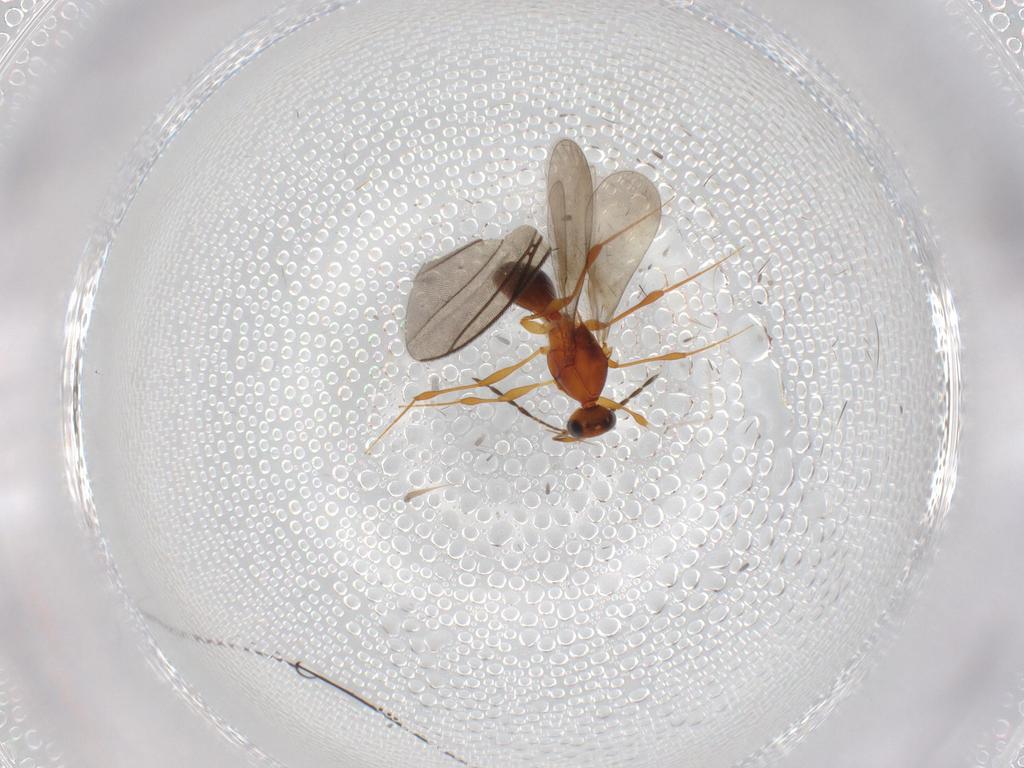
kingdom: Animalia
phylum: Arthropoda
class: Insecta
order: Hymenoptera
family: Platygastridae
